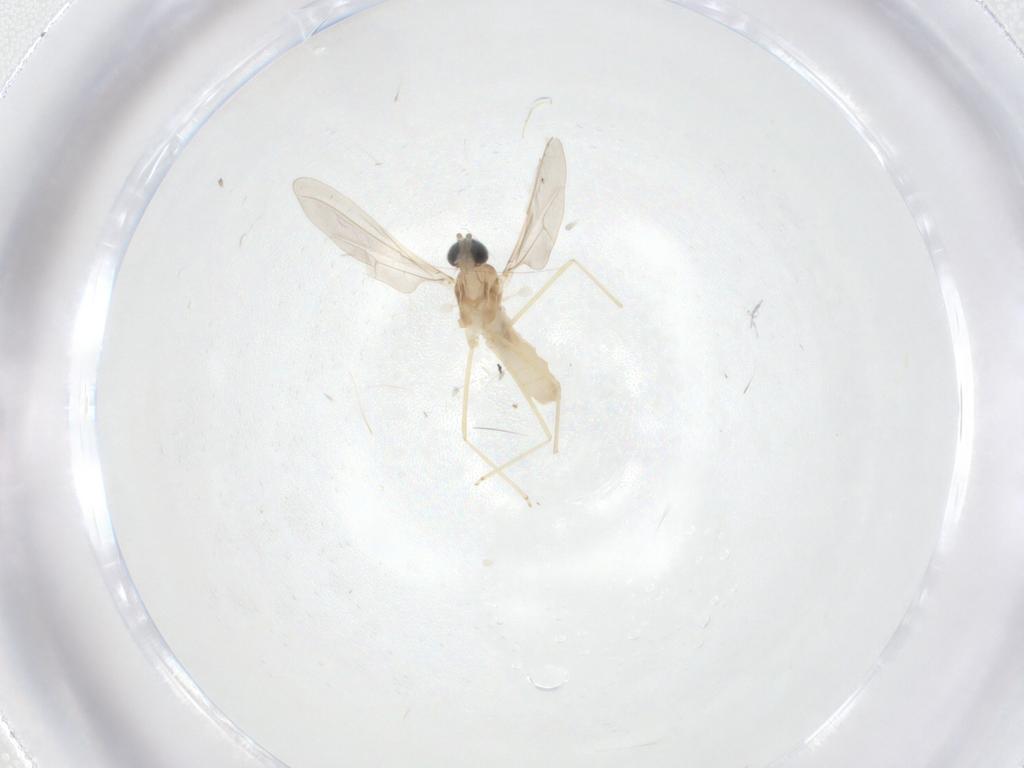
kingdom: Animalia
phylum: Arthropoda
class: Insecta
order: Diptera
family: Cecidomyiidae
